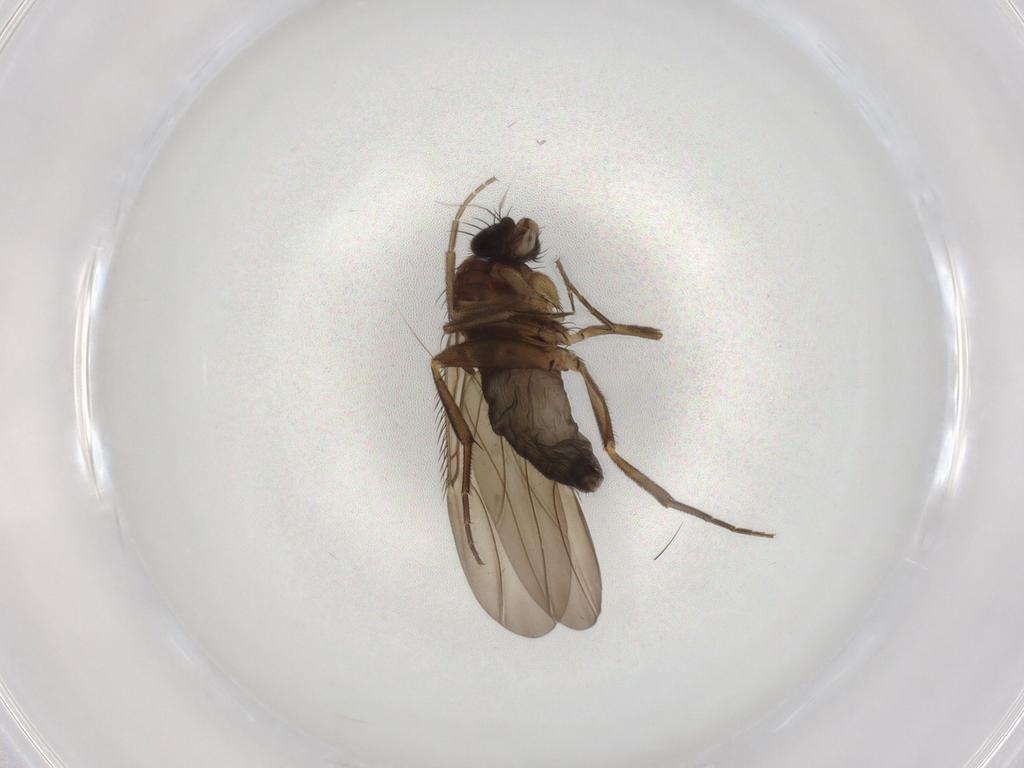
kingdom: Animalia
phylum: Arthropoda
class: Insecta
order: Diptera
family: Phoridae
